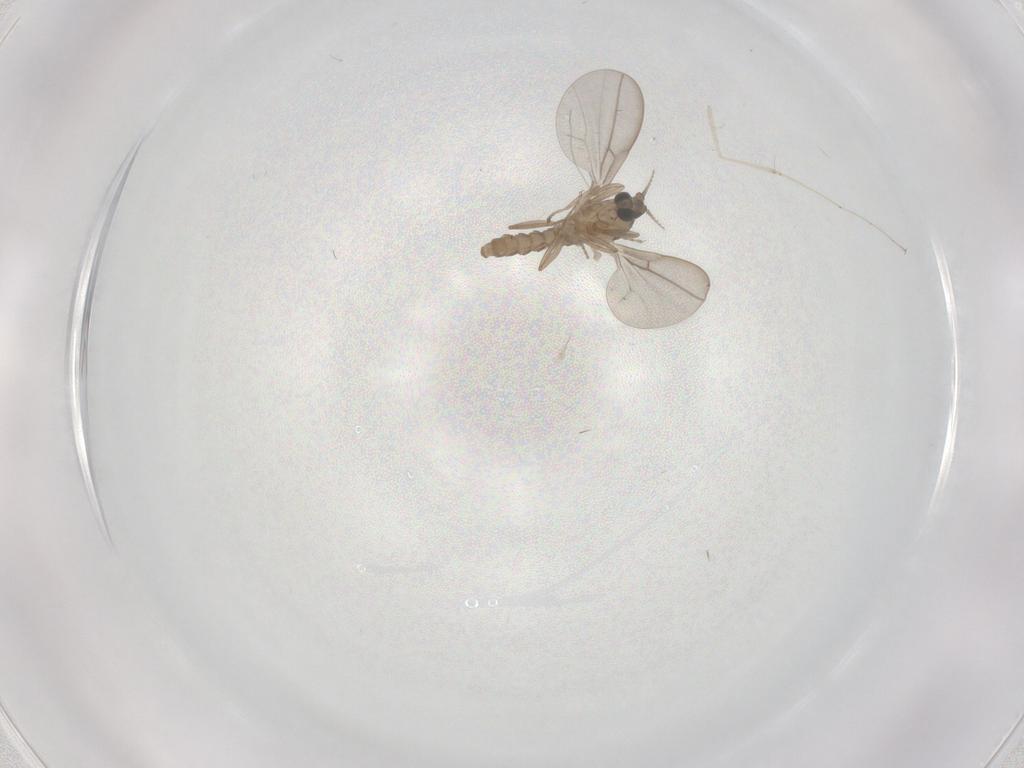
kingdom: Animalia
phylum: Arthropoda
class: Insecta
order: Diptera
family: Cecidomyiidae
